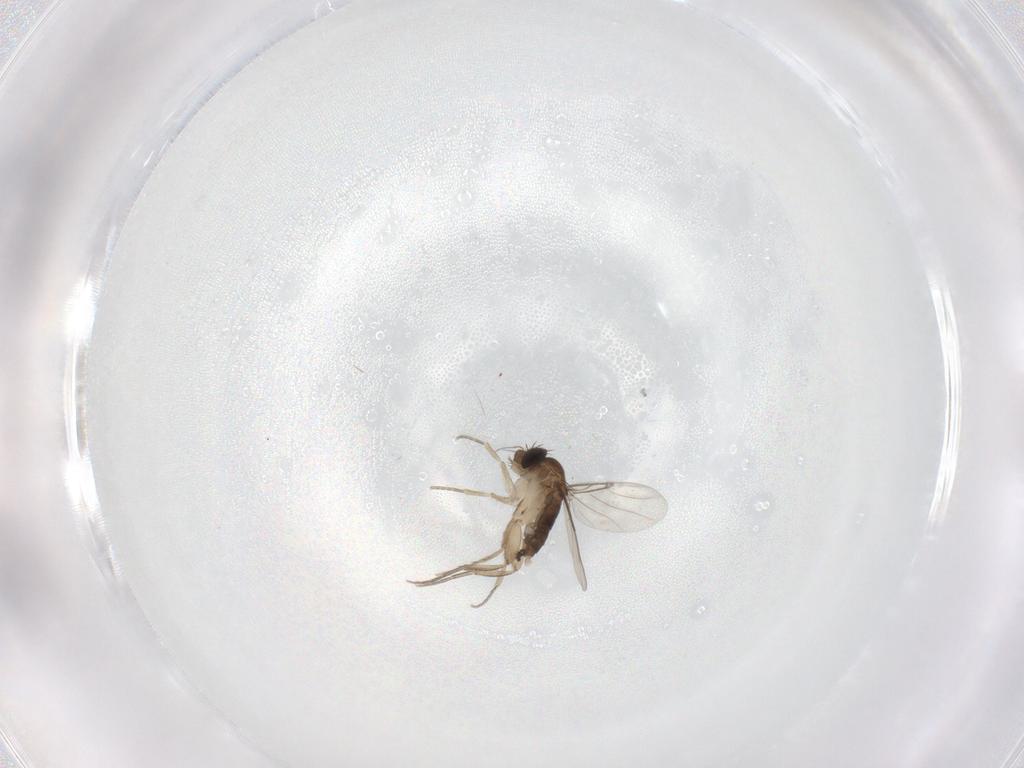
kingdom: Animalia
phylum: Arthropoda
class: Insecta
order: Diptera
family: Phoridae
